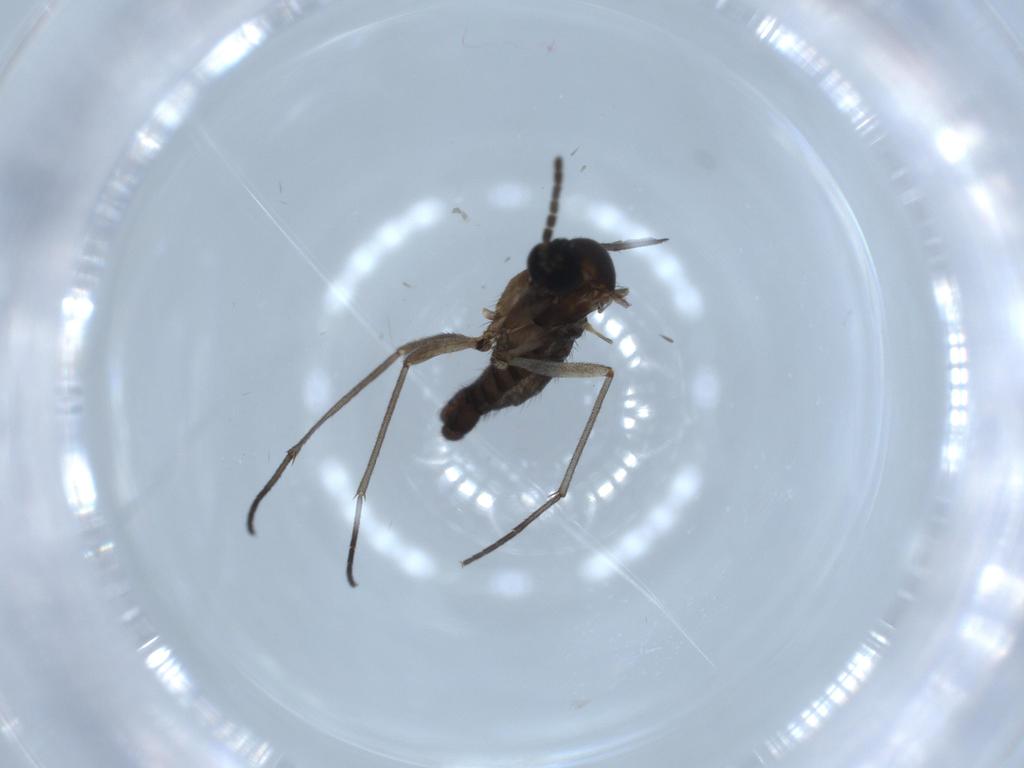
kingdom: Animalia
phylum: Arthropoda
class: Insecta
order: Diptera
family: Sciaridae
